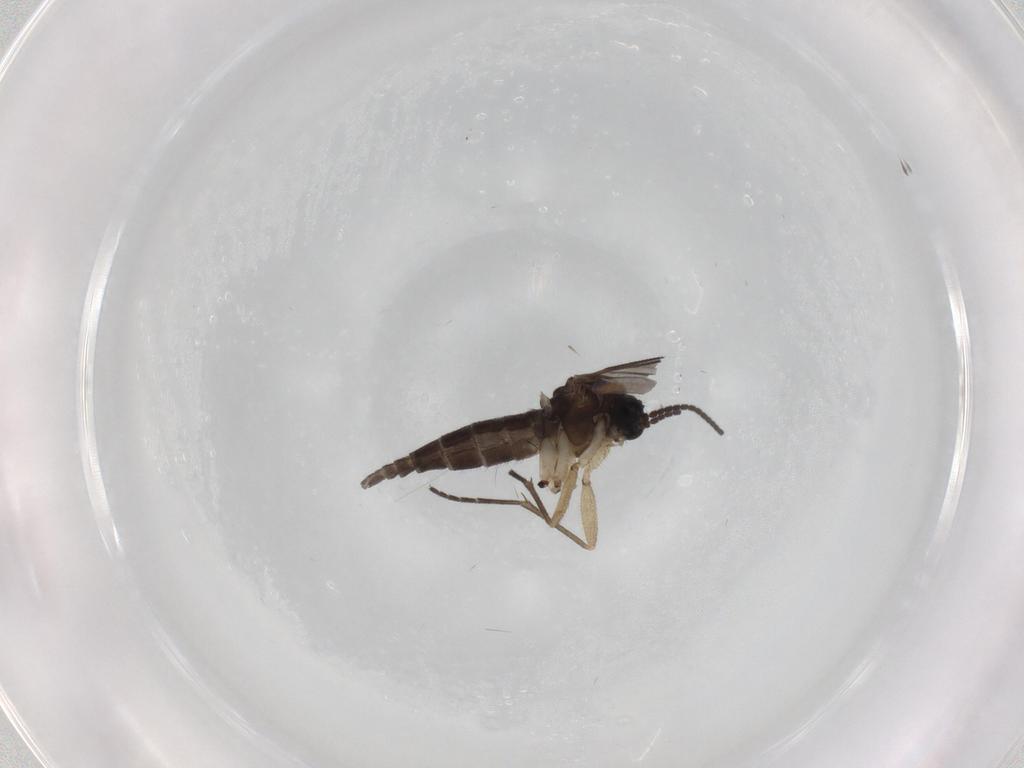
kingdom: Animalia
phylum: Arthropoda
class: Insecta
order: Diptera
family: Sciaridae
